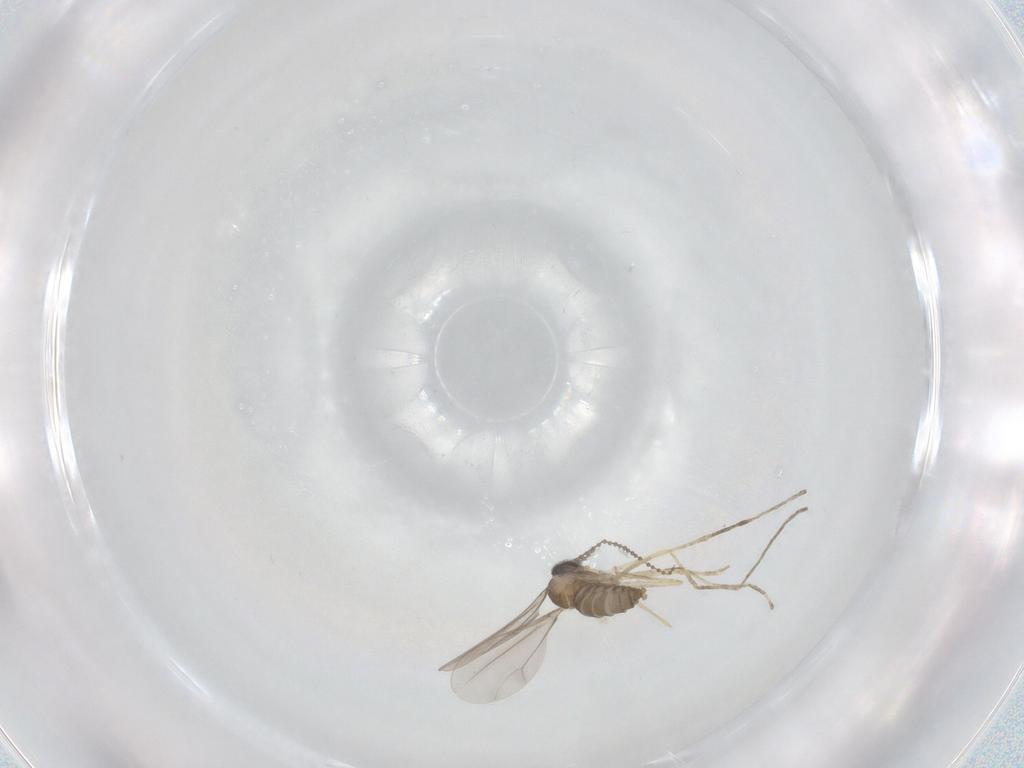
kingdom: Animalia
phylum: Arthropoda
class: Insecta
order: Diptera
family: Cecidomyiidae
